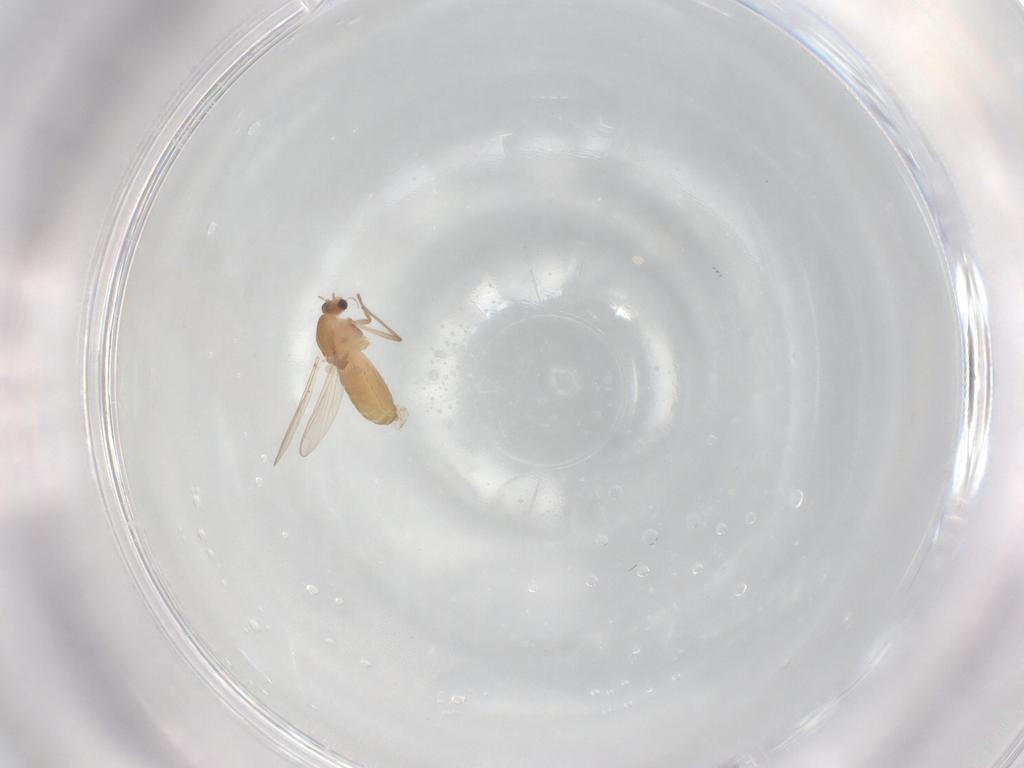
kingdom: Animalia
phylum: Arthropoda
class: Insecta
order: Diptera
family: Chironomidae
